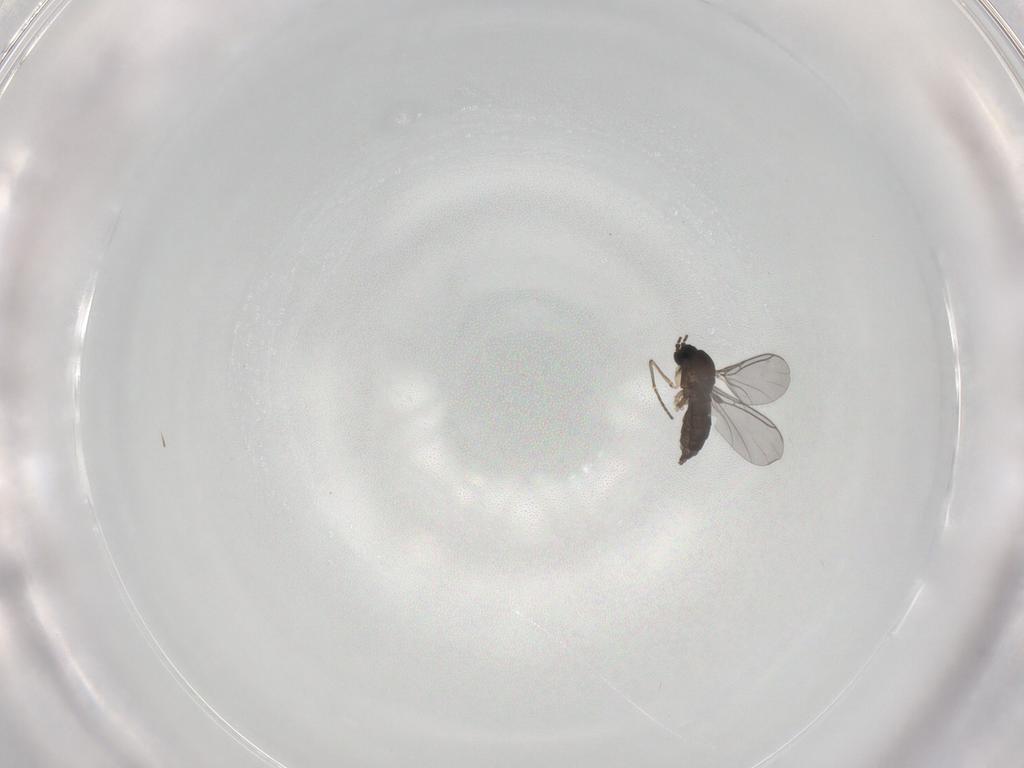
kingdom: Animalia
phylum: Arthropoda
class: Insecta
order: Diptera
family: Sciaridae
